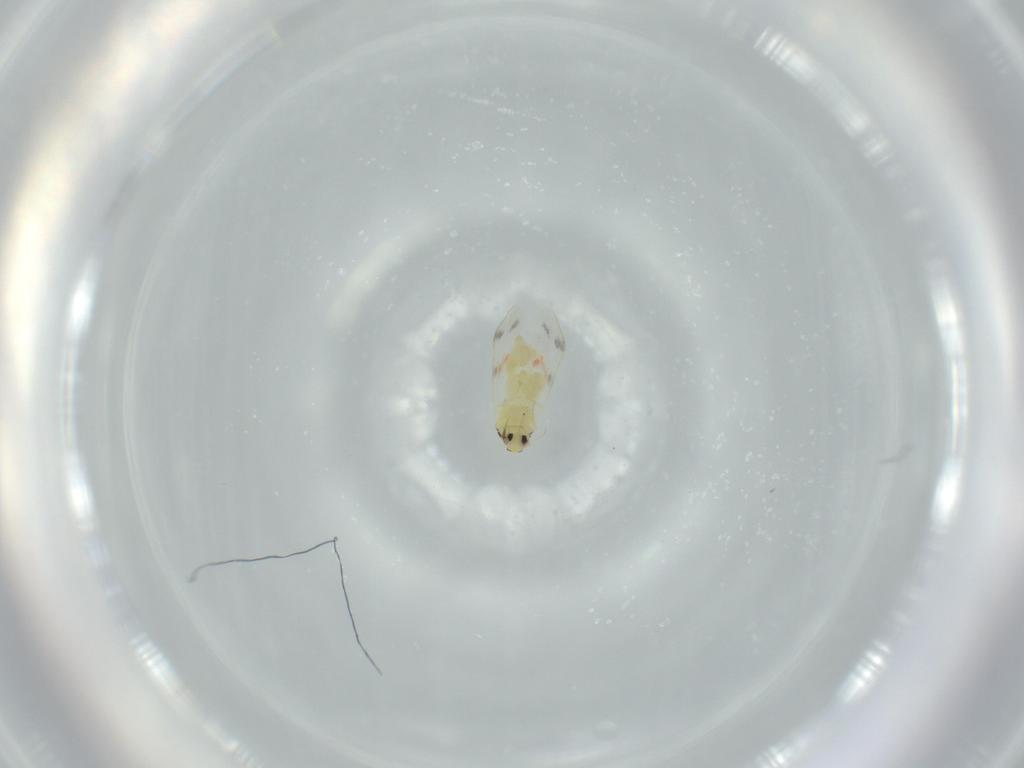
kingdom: Animalia
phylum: Arthropoda
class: Insecta
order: Hemiptera
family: Aleyrodidae
